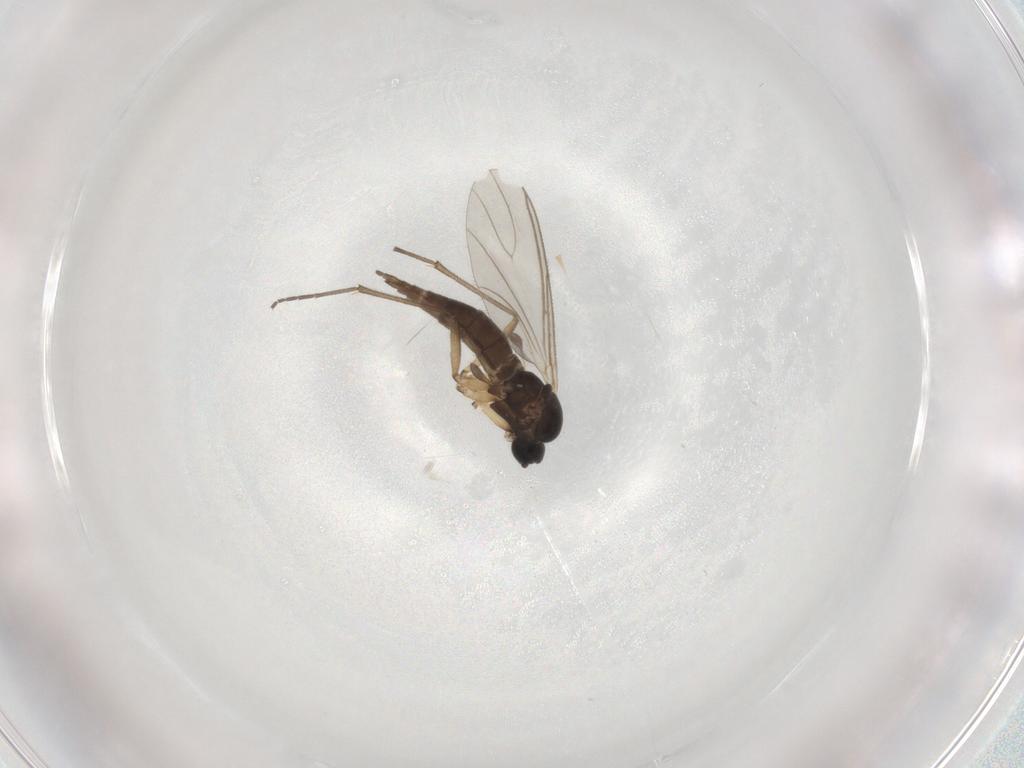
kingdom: Animalia
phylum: Arthropoda
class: Insecta
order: Diptera
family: Sciaridae
